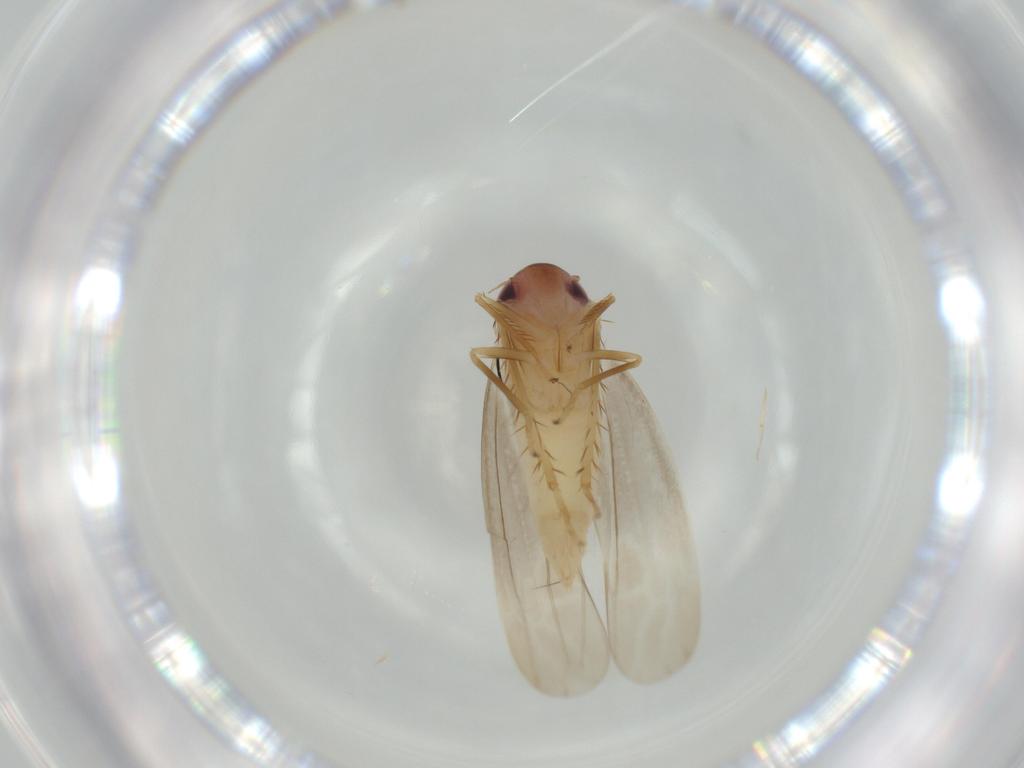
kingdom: Animalia
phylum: Arthropoda
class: Insecta
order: Hemiptera
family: Cicadellidae
